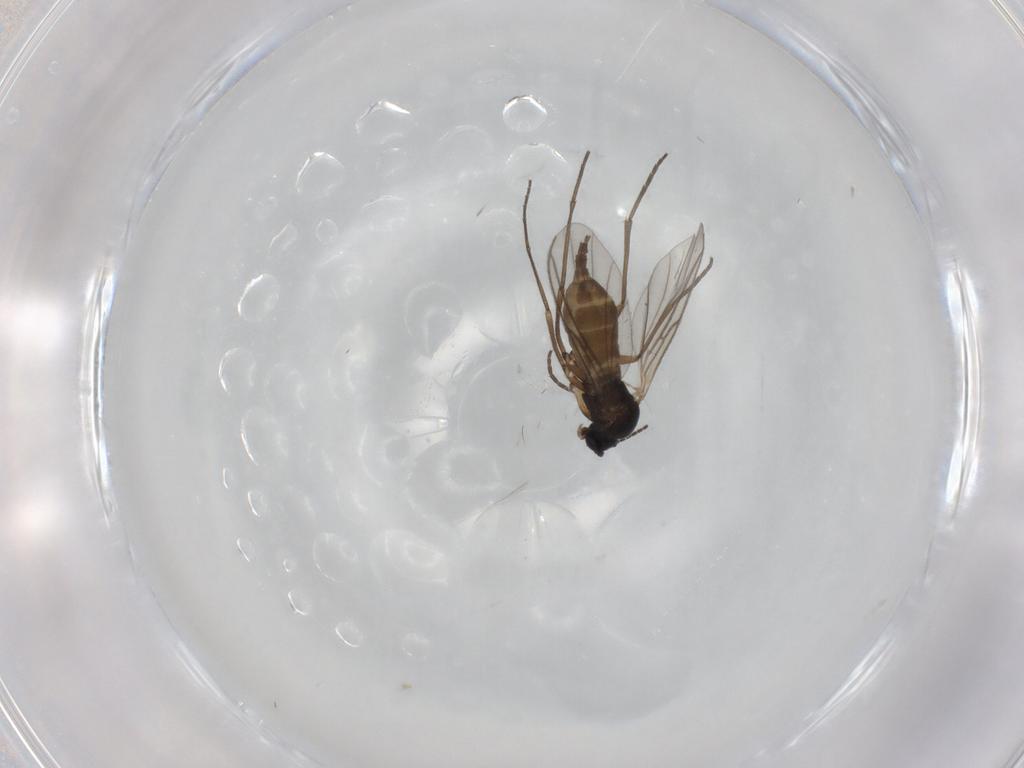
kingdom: Animalia
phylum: Arthropoda
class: Insecta
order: Diptera
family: Sciaridae
